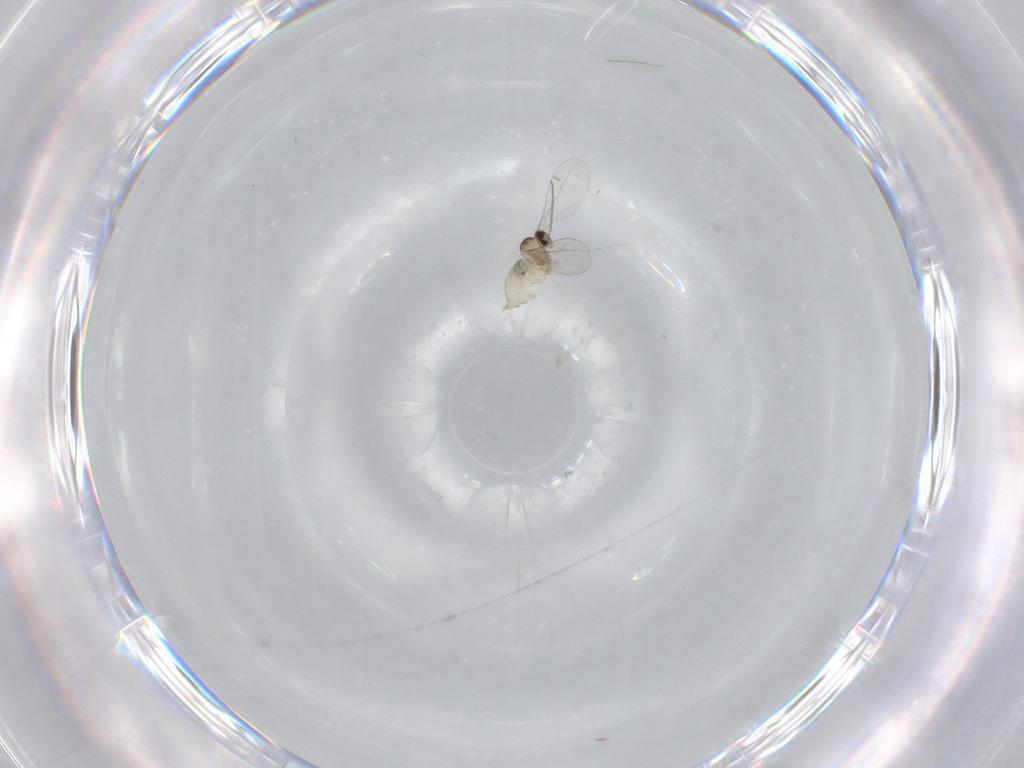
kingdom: Animalia
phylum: Arthropoda
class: Insecta
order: Diptera
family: Cecidomyiidae
